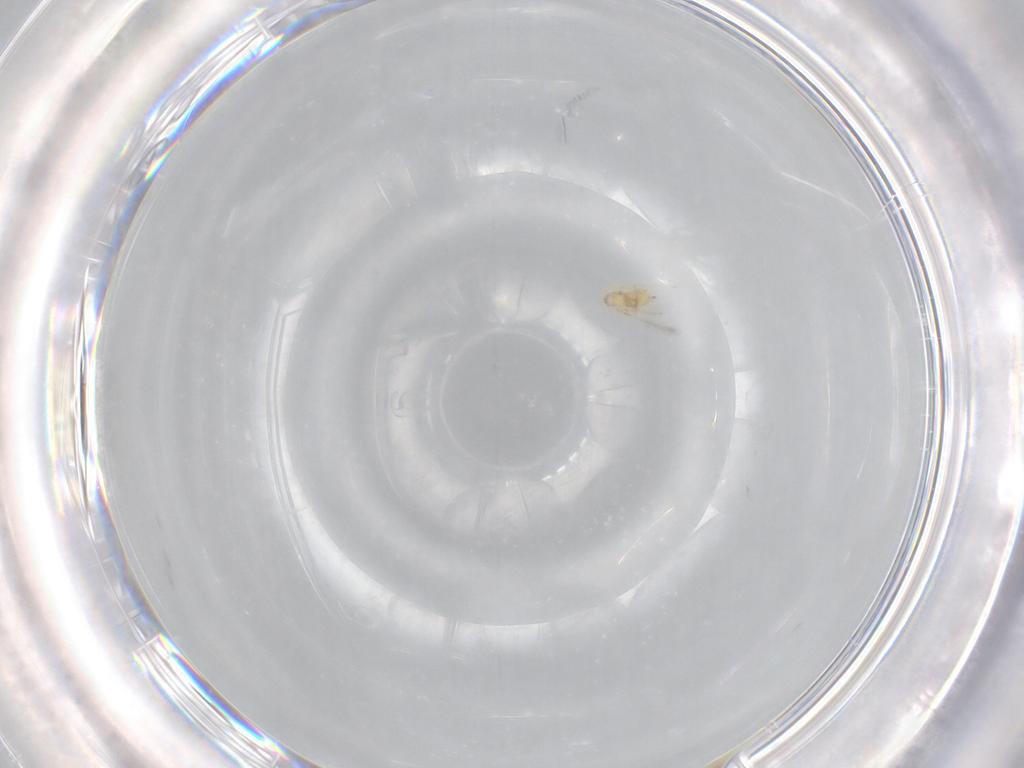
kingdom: Animalia
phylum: Arthropoda
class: Insecta
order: Hymenoptera
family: Mymaridae
